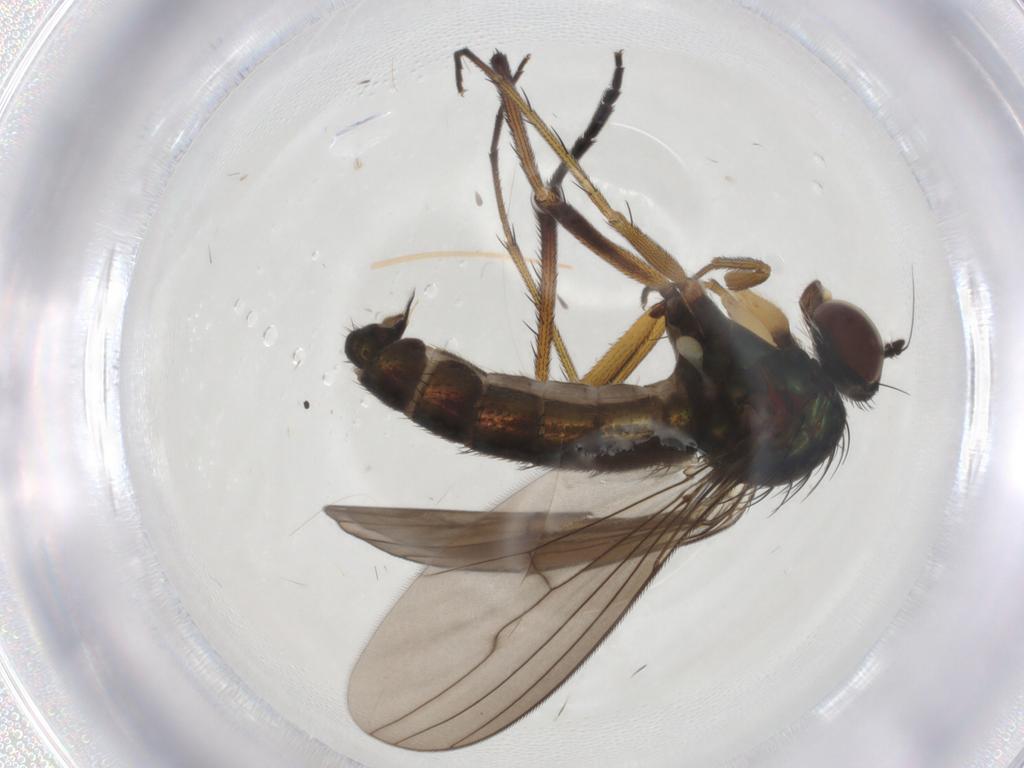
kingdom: Animalia
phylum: Arthropoda
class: Insecta
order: Diptera
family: Dolichopodidae
